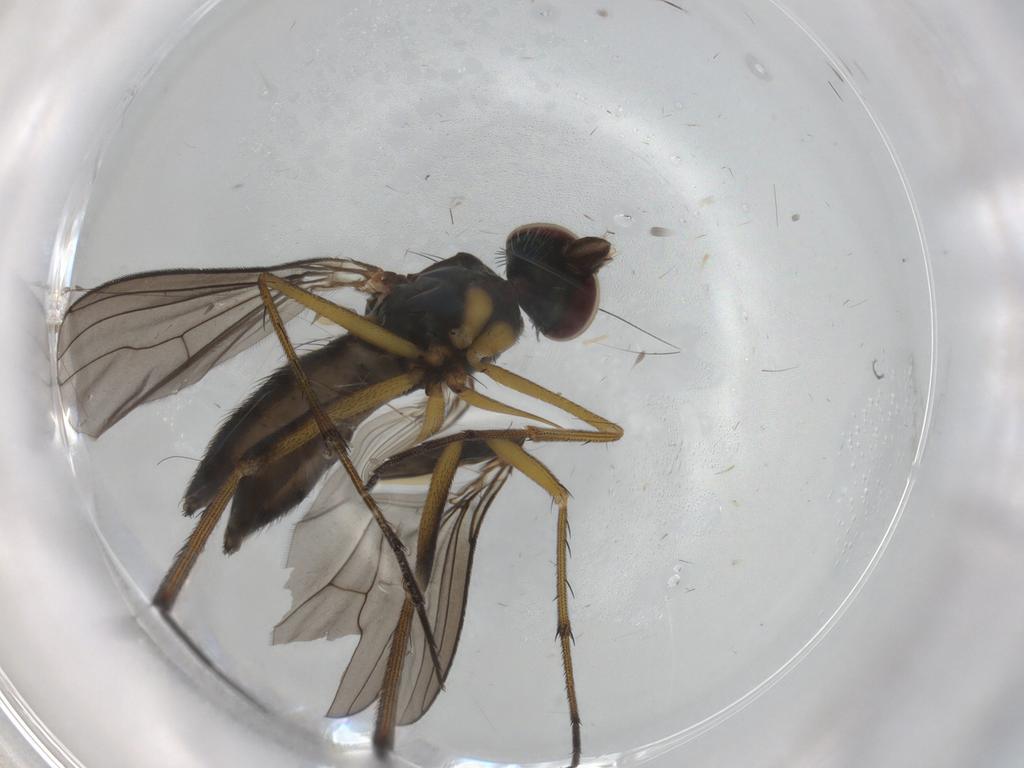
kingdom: Animalia
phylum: Arthropoda
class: Insecta
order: Diptera
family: Dolichopodidae
